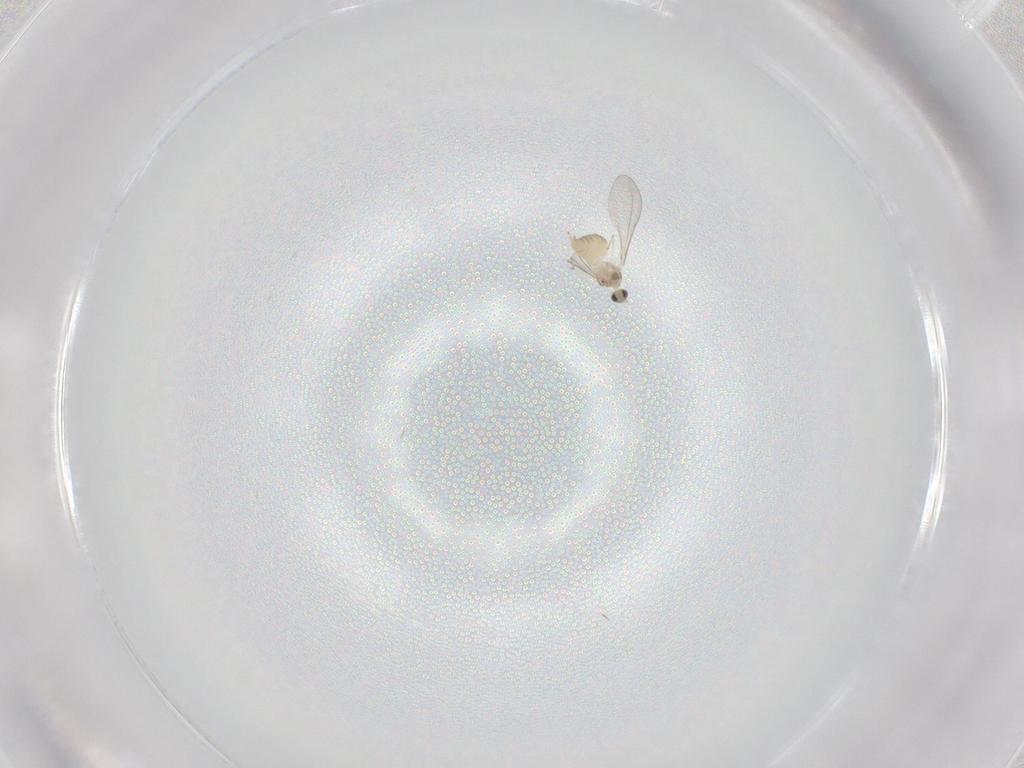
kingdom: Animalia
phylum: Arthropoda
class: Insecta
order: Diptera
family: Cecidomyiidae
